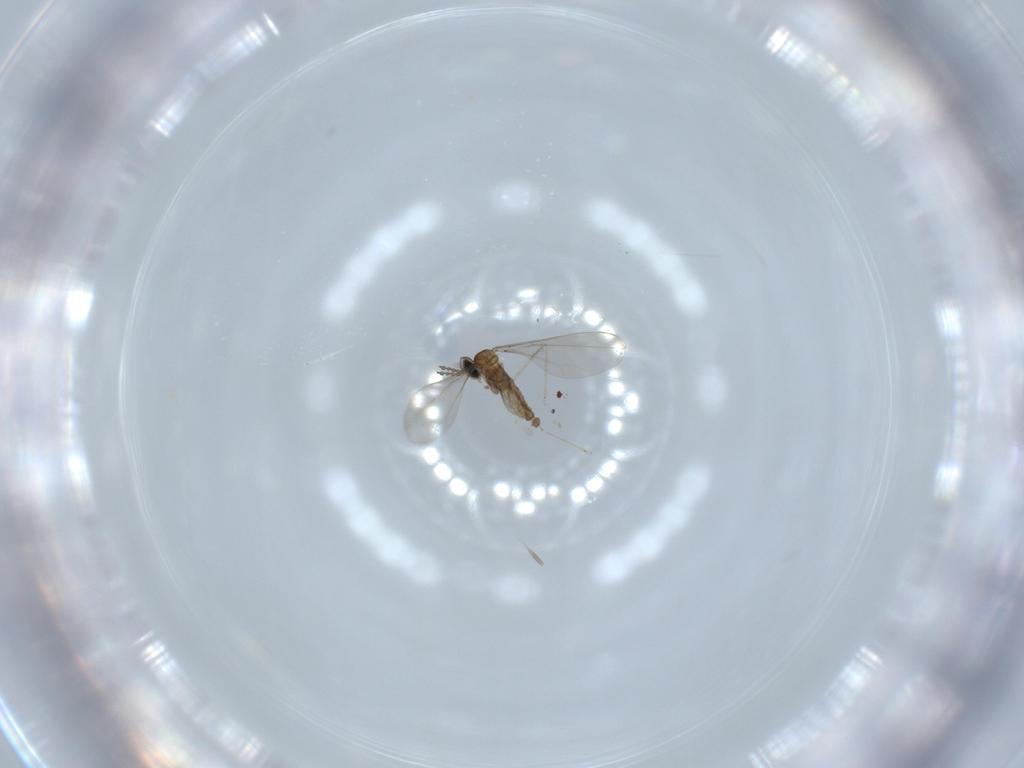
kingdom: Animalia
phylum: Arthropoda
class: Insecta
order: Diptera
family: Cecidomyiidae
